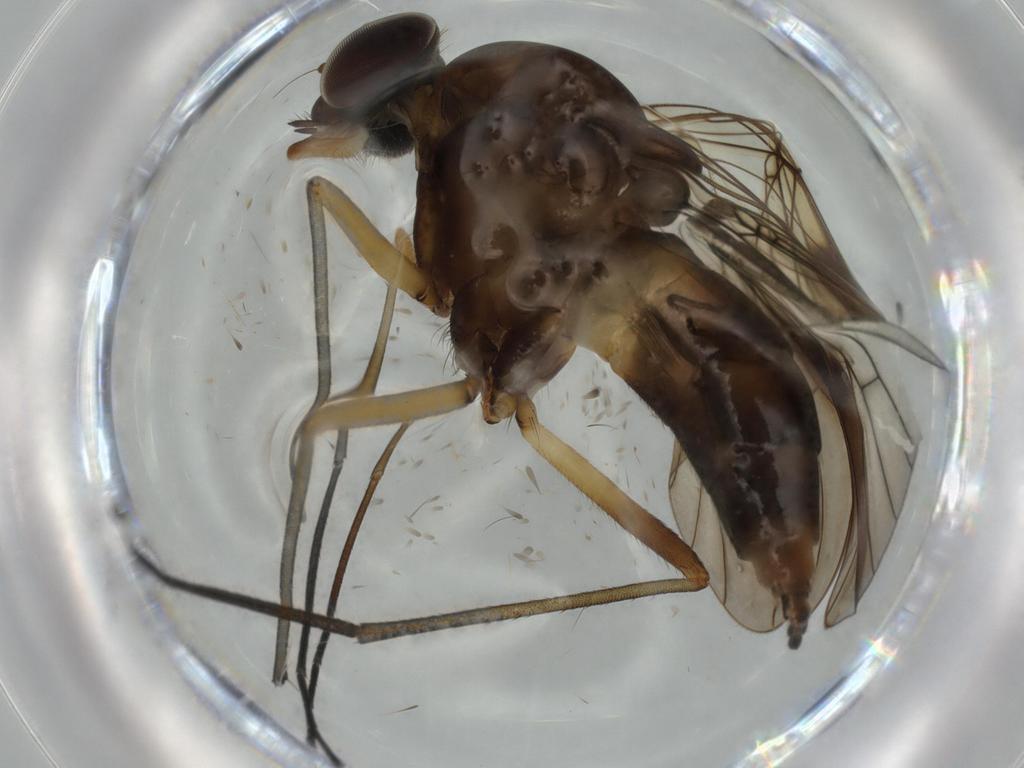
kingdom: Animalia
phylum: Arthropoda
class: Insecta
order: Diptera
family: Cecidomyiidae
